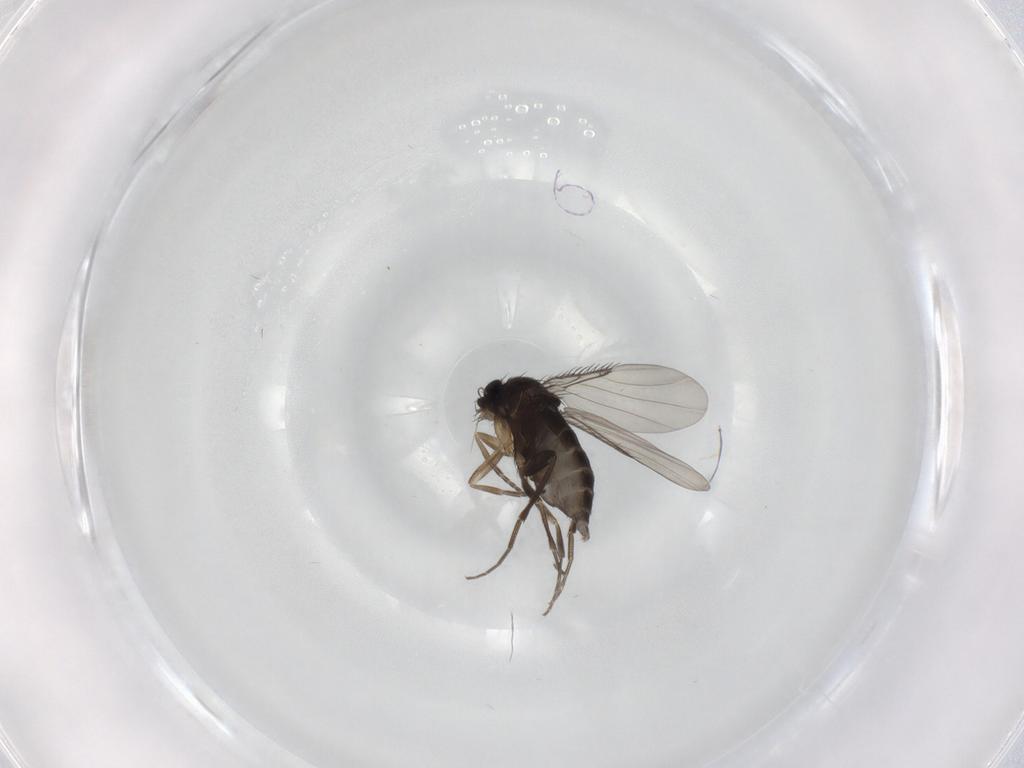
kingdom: Animalia
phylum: Arthropoda
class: Insecta
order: Diptera
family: Phoridae
